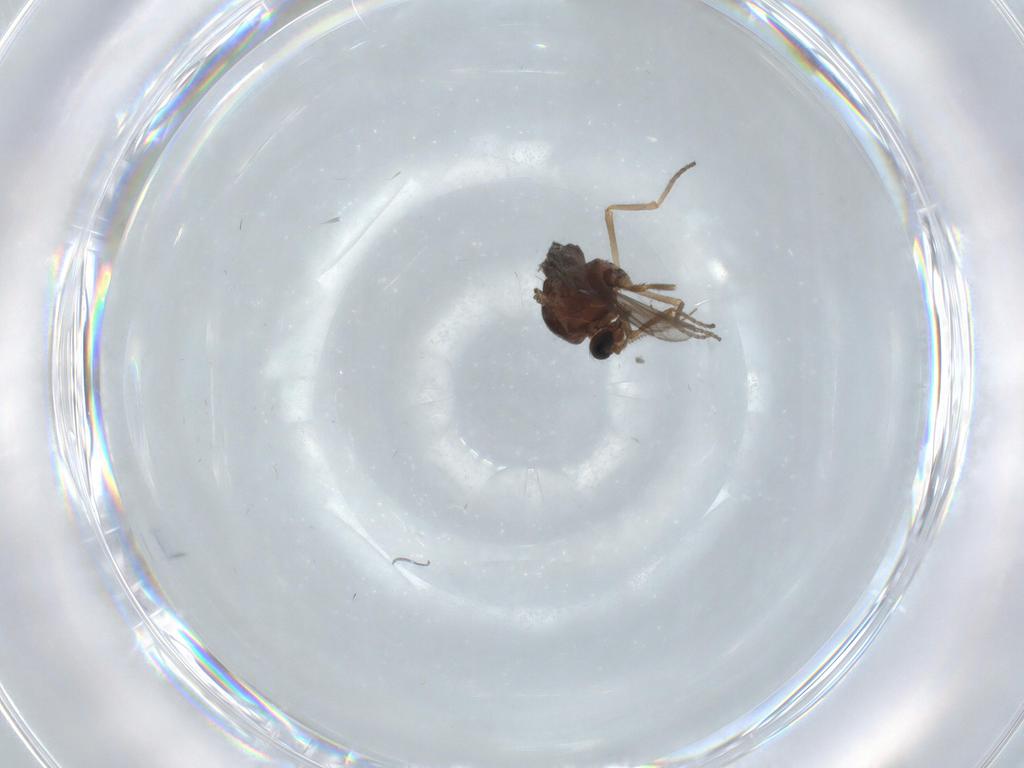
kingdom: Animalia
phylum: Arthropoda
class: Insecta
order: Diptera
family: Ceratopogonidae
